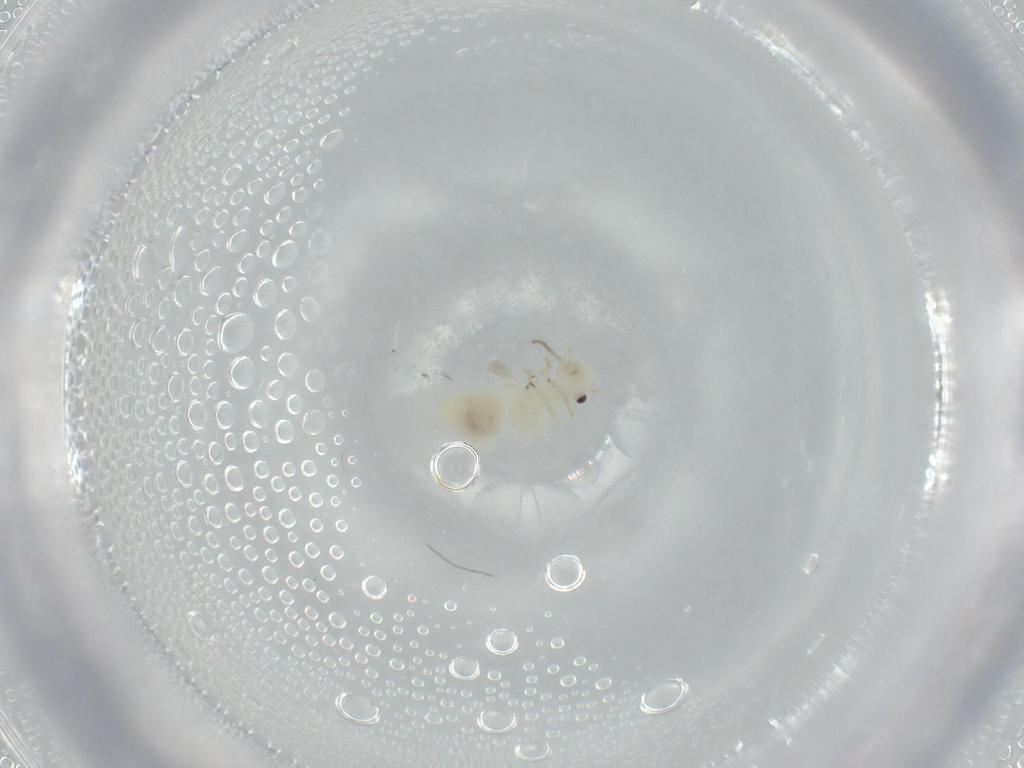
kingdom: Animalia
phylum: Arthropoda
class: Insecta
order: Psocodea
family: Caeciliusidae
